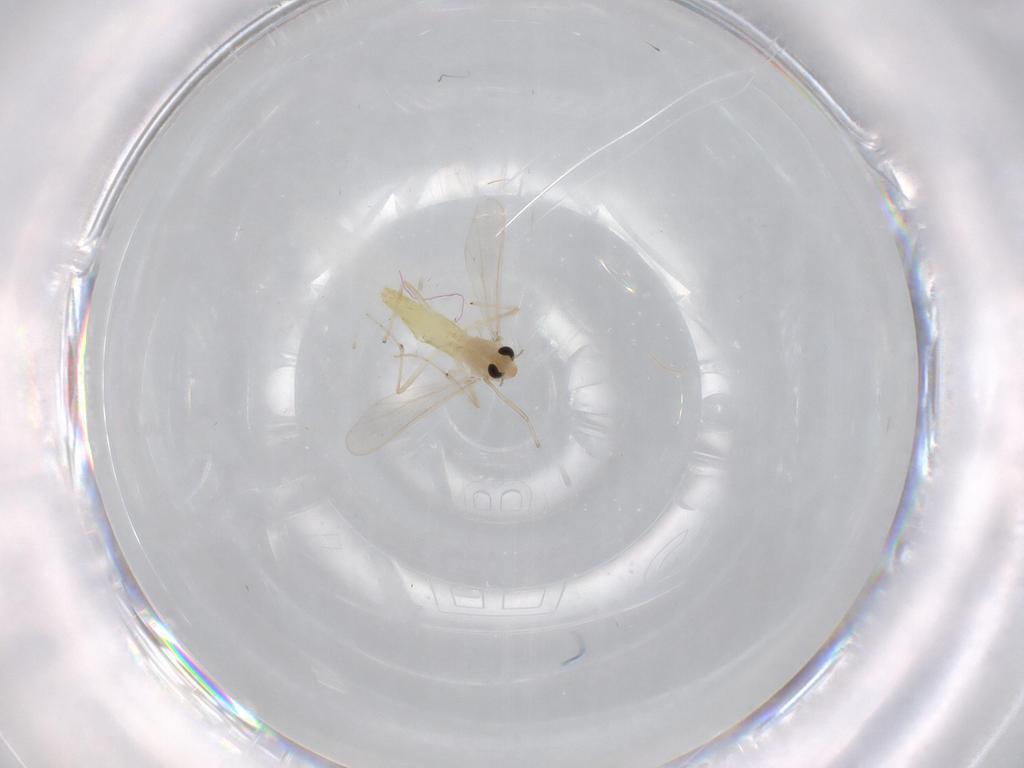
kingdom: Animalia
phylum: Arthropoda
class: Insecta
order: Diptera
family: Chironomidae
